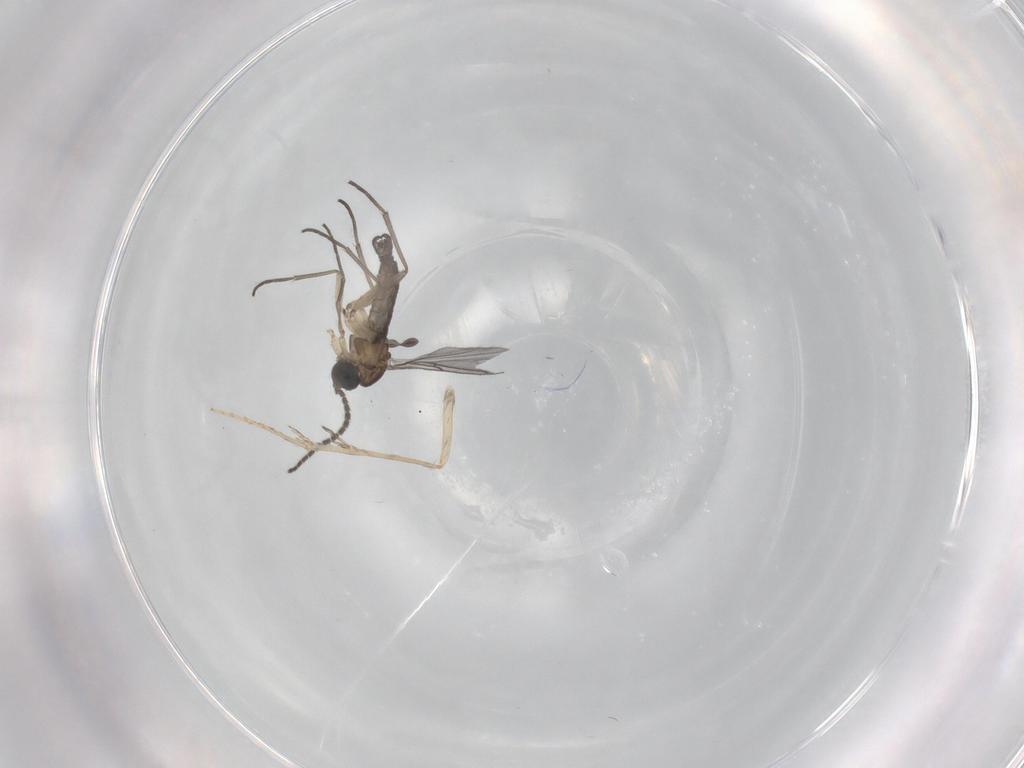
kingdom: Animalia
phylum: Arthropoda
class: Insecta
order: Diptera
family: Sciaridae
